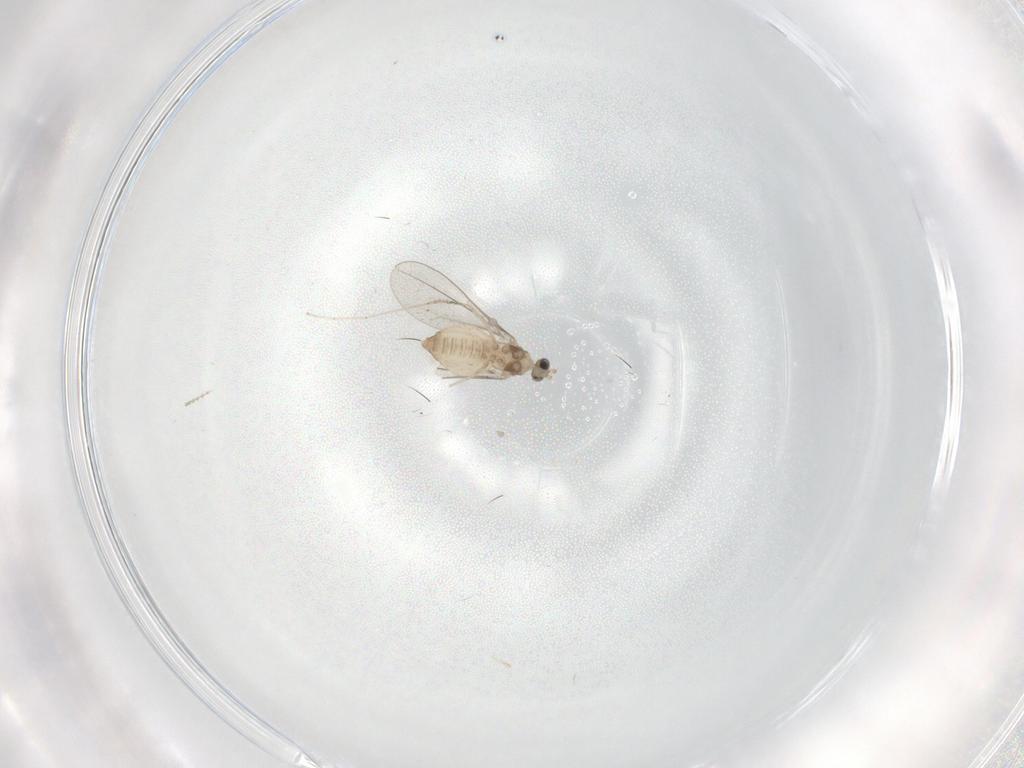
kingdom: Animalia
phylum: Arthropoda
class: Insecta
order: Diptera
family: Cecidomyiidae
